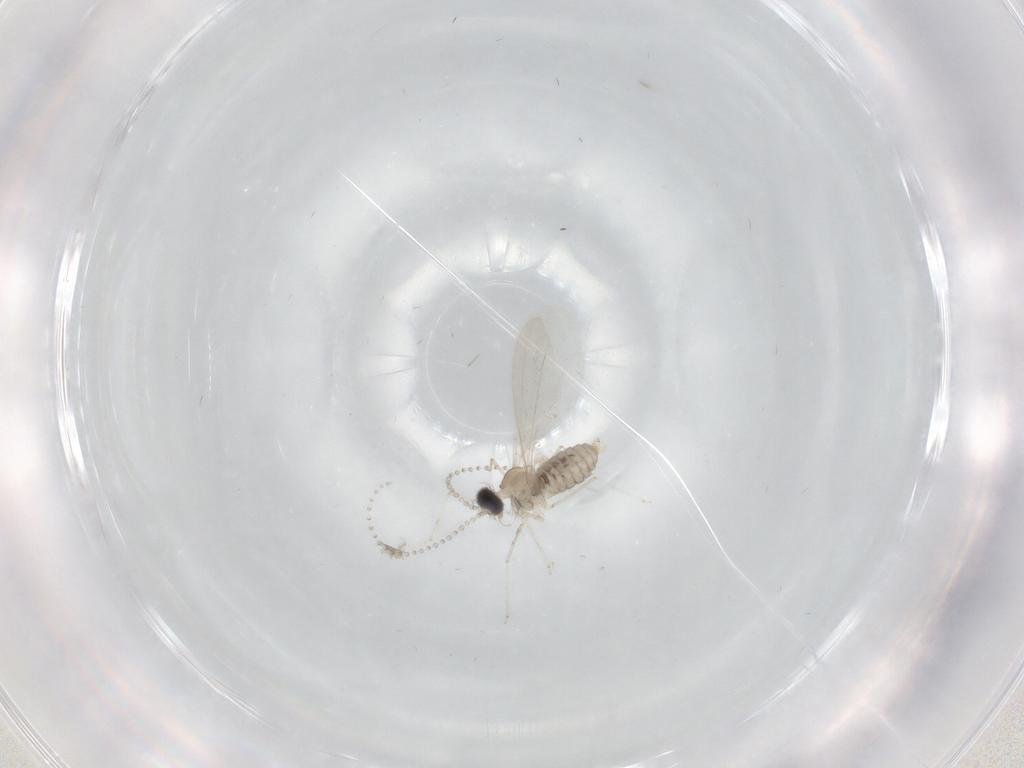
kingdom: Animalia
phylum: Arthropoda
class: Insecta
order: Diptera
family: Cecidomyiidae
